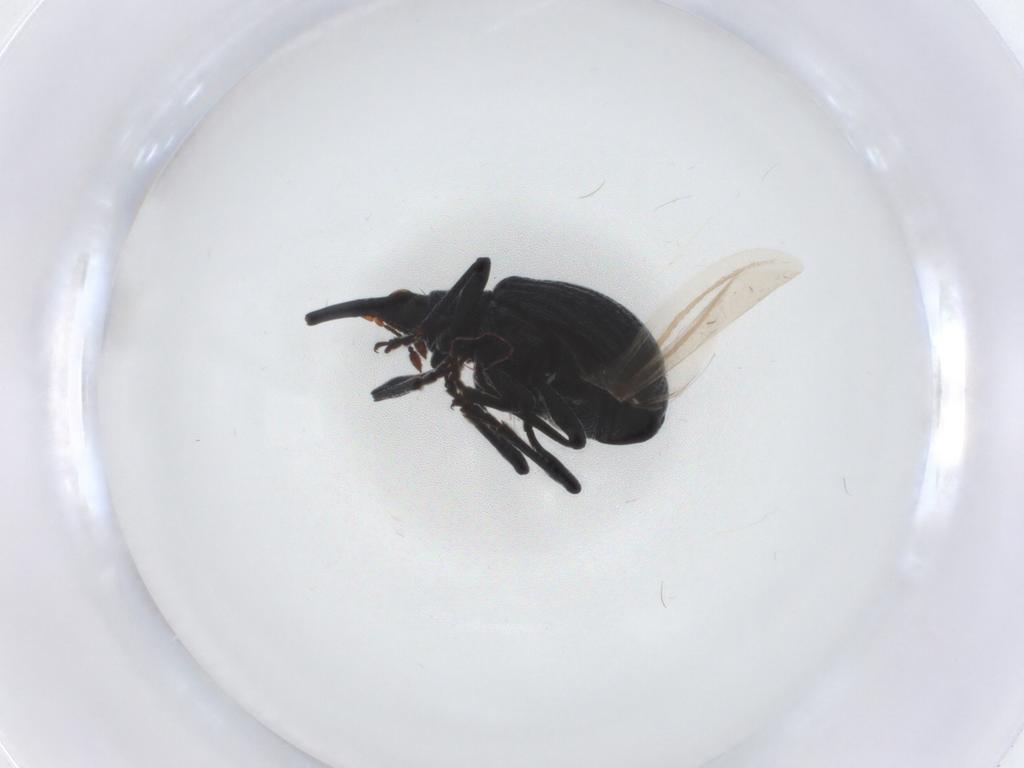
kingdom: Animalia
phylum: Arthropoda
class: Insecta
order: Coleoptera
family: Brentidae
